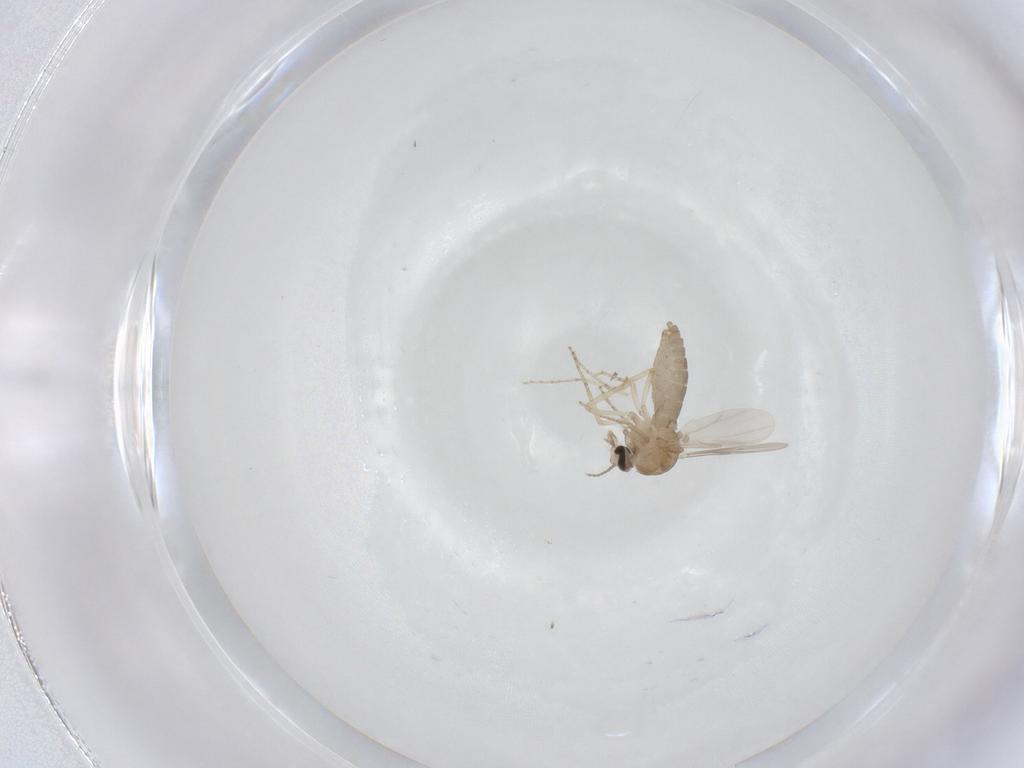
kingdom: Animalia
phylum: Arthropoda
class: Insecta
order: Diptera
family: Ceratopogonidae
